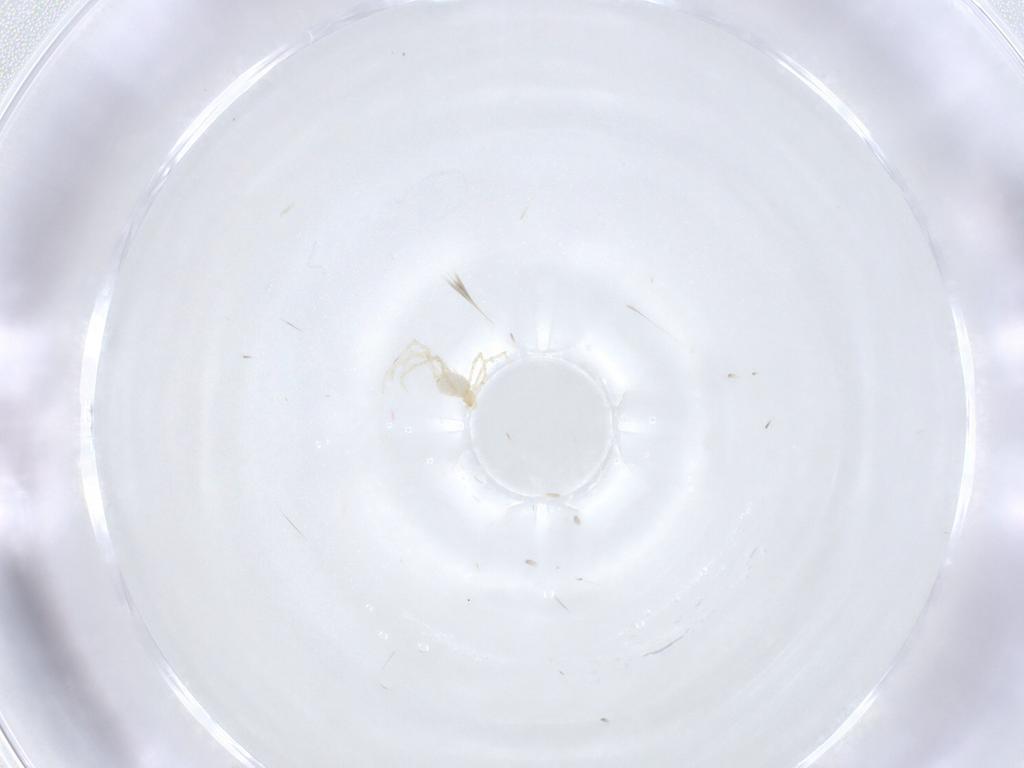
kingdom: Animalia
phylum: Arthropoda
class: Arachnida
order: Trombidiformes
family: Erythraeidae
